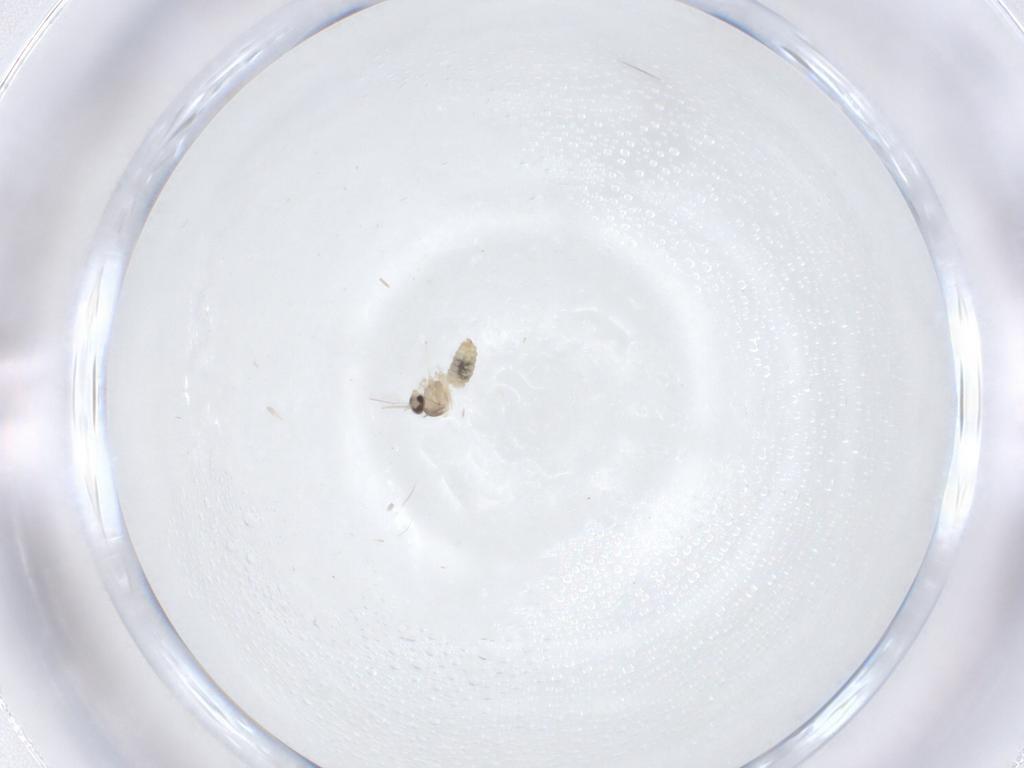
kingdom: Animalia
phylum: Arthropoda
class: Insecta
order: Diptera
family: Cecidomyiidae
